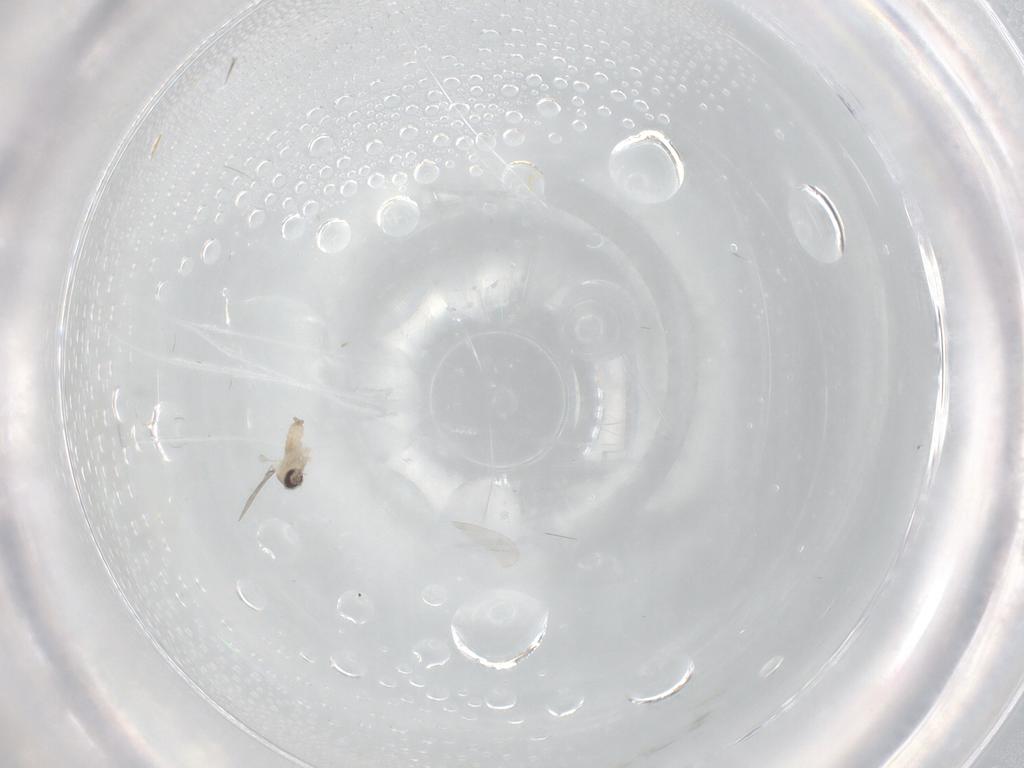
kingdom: Animalia
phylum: Arthropoda
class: Insecta
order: Diptera
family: Cecidomyiidae
